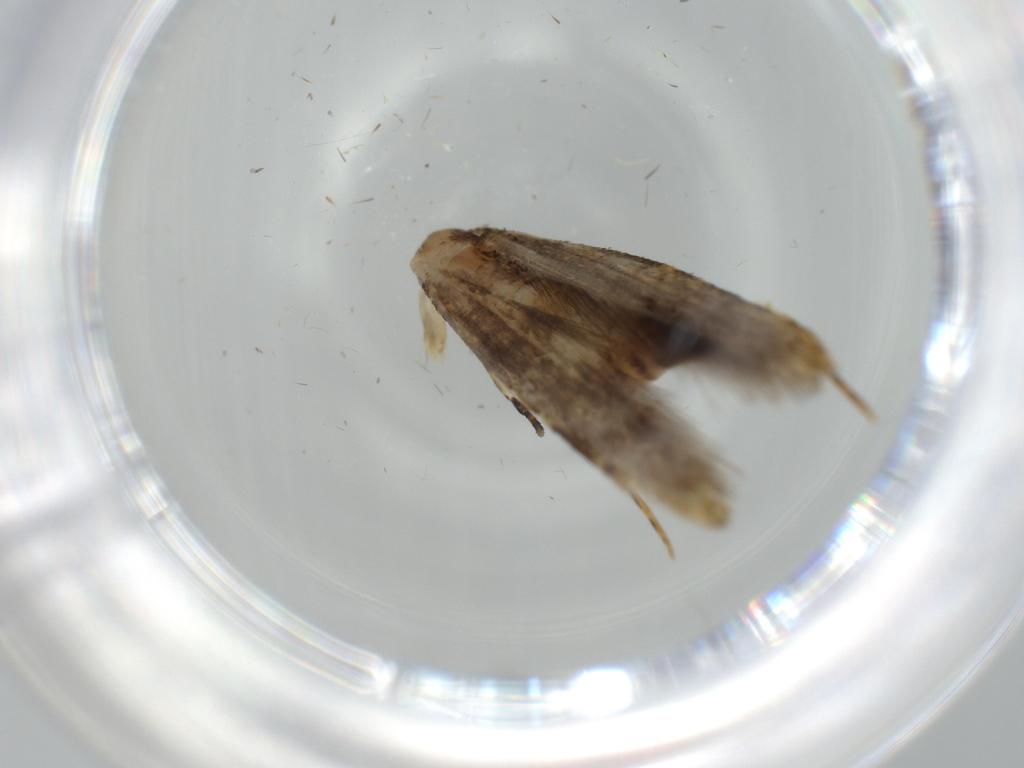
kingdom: Animalia
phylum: Arthropoda
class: Insecta
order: Lepidoptera
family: Tineidae
